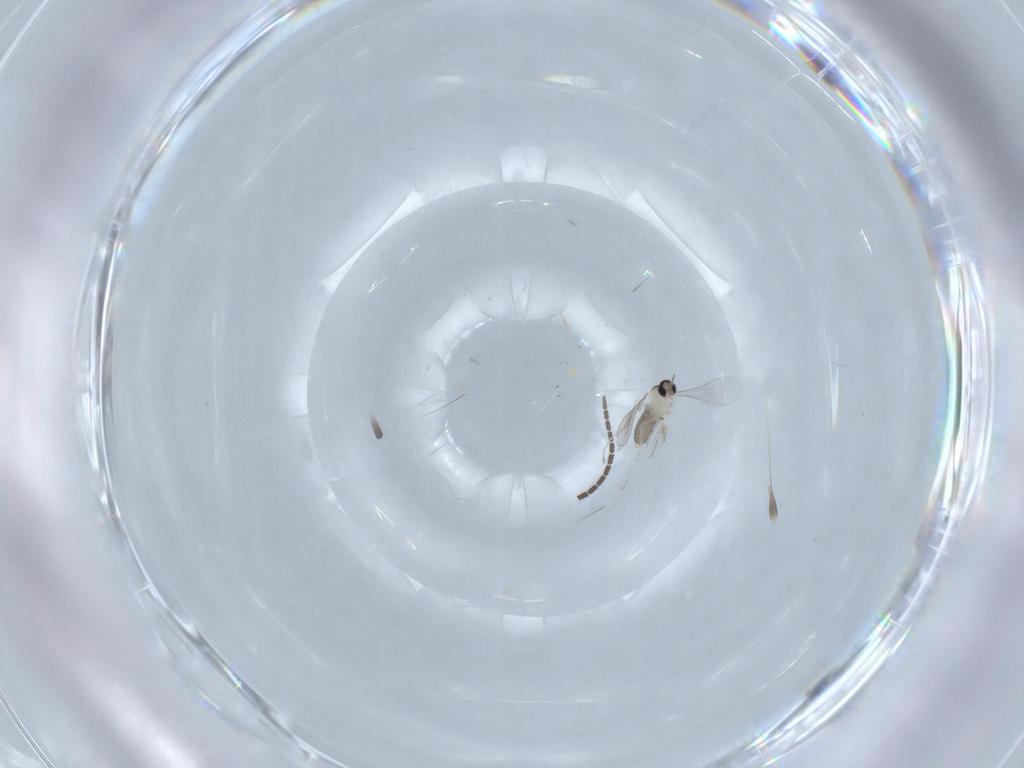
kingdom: Animalia
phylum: Arthropoda
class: Insecta
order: Diptera
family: Sciaridae
